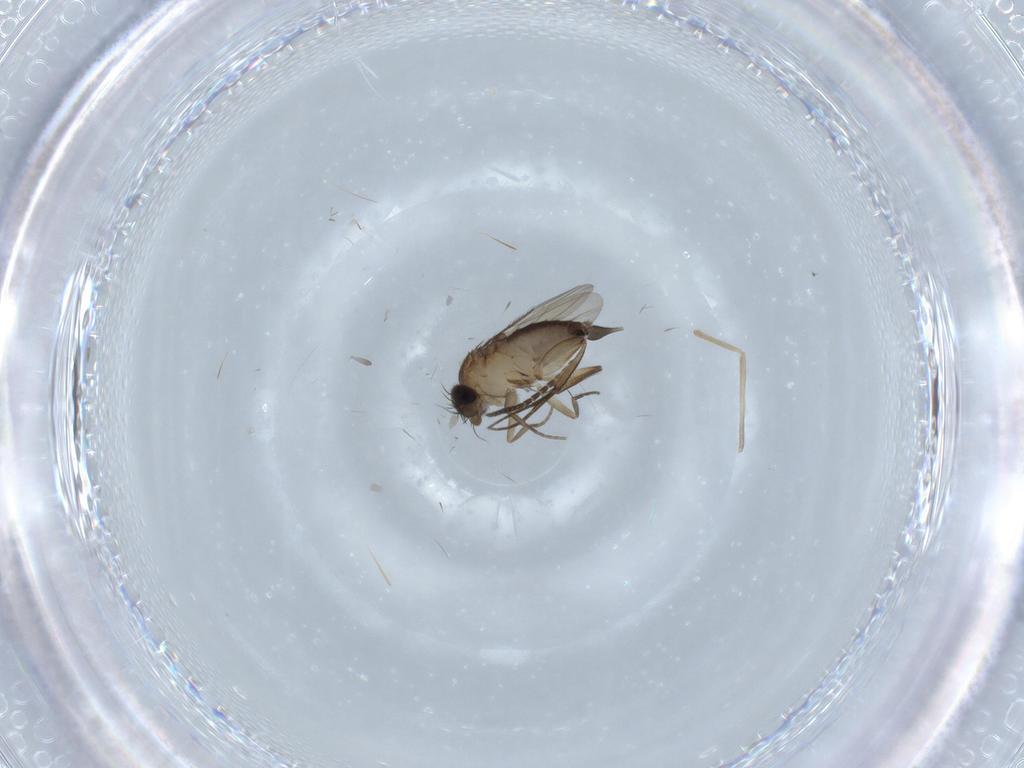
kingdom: Animalia
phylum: Arthropoda
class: Insecta
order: Diptera
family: Phoridae
